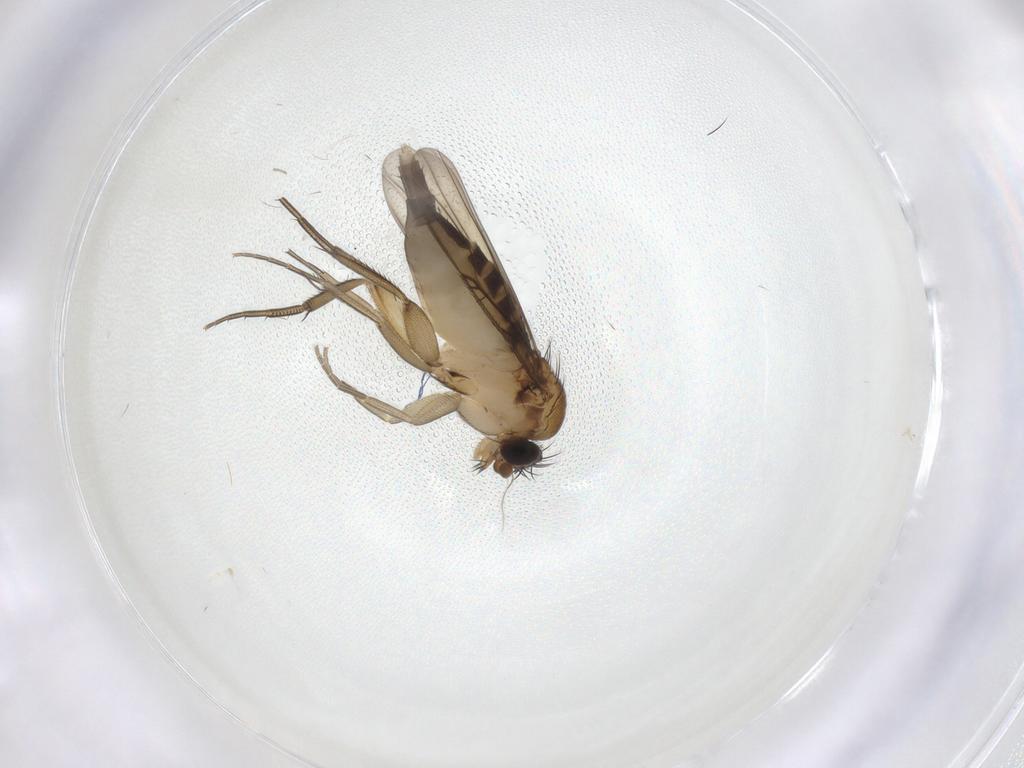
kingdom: Animalia
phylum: Arthropoda
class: Insecta
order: Diptera
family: Phoridae
